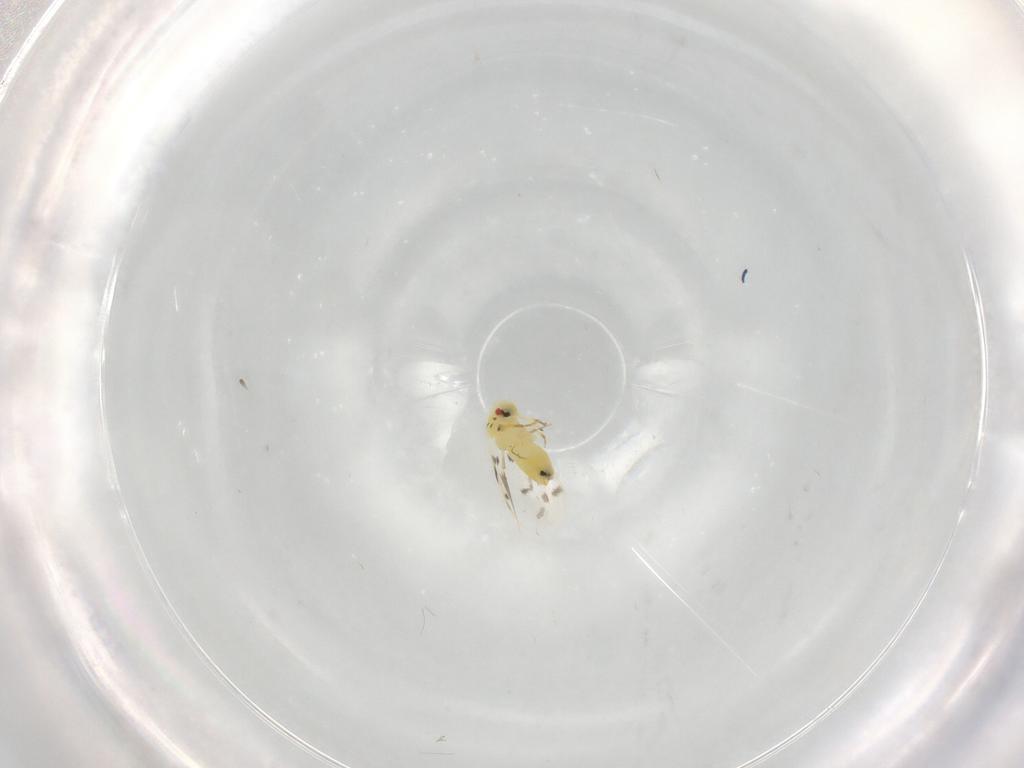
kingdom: Animalia
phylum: Arthropoda
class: Insecta
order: Hemiptera
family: Aleyrodidae
